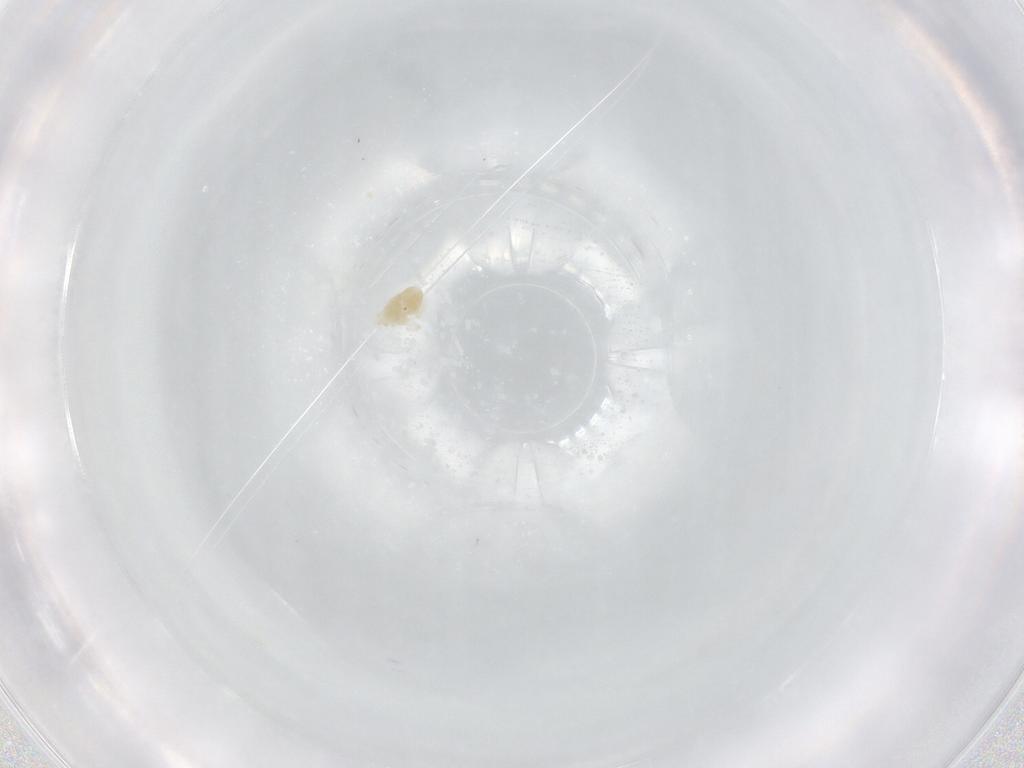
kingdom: Animalia
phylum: Arthropoda
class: Arachnida
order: Trombidiformes
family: Eupodidae
